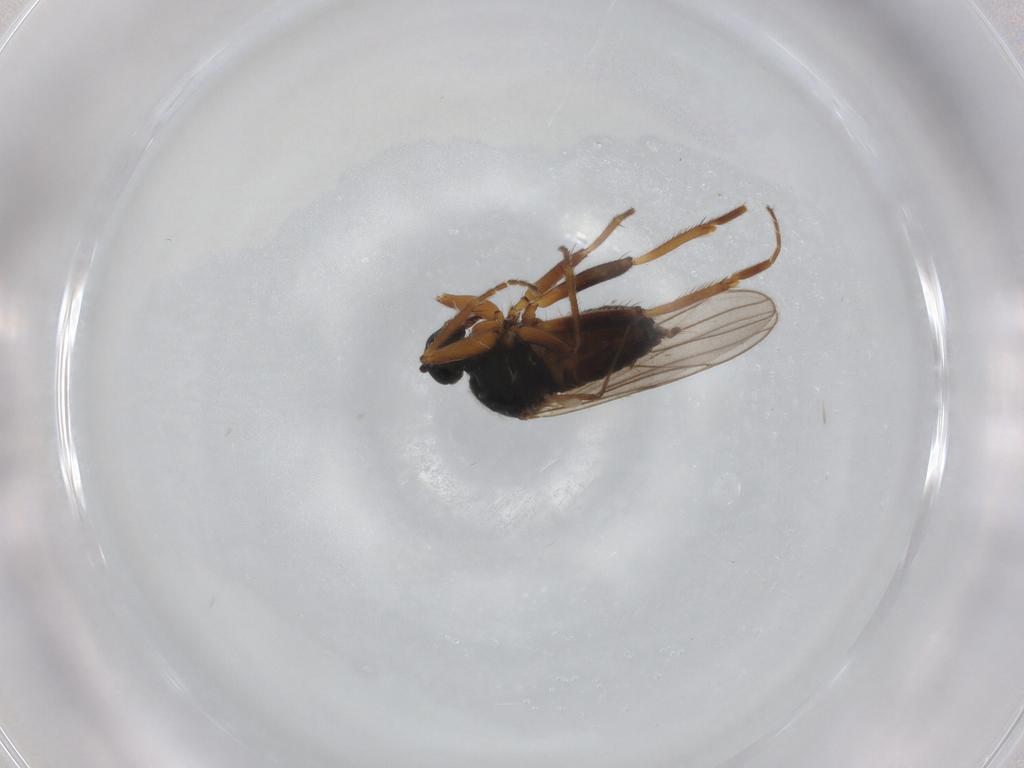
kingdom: Animalia
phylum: Arthropoda
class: Insecta
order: Diptera
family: Hybotidae
